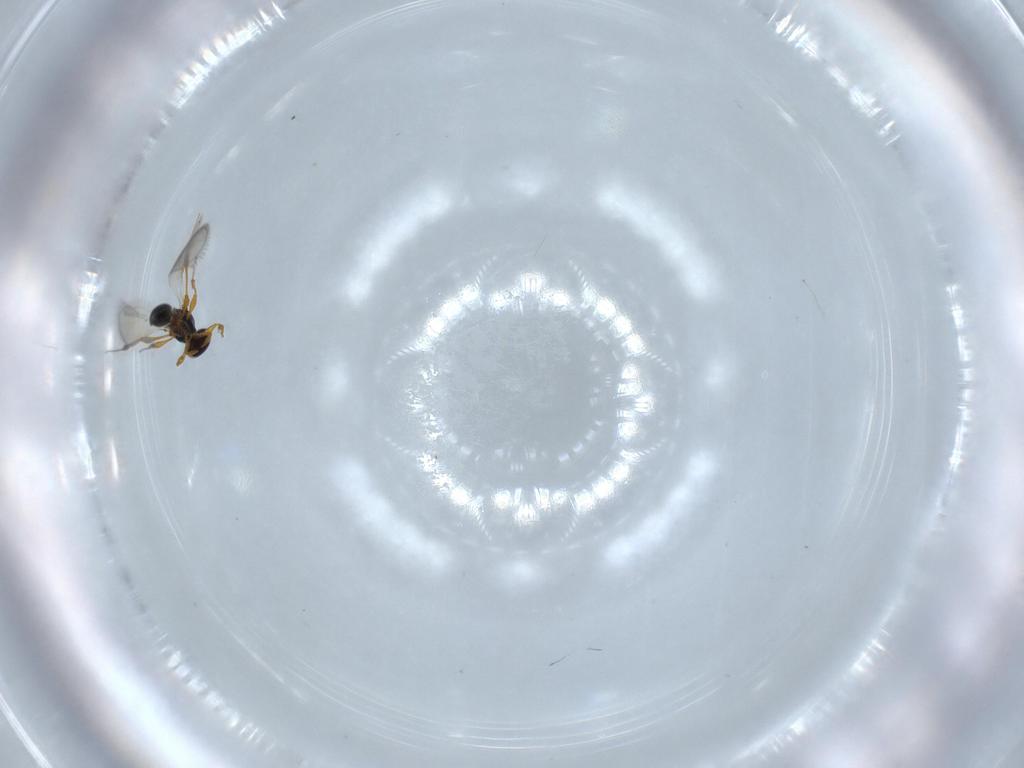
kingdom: Animalia
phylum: Arthropoda
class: Insecta
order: Hymenoptera
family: Platygastridae
